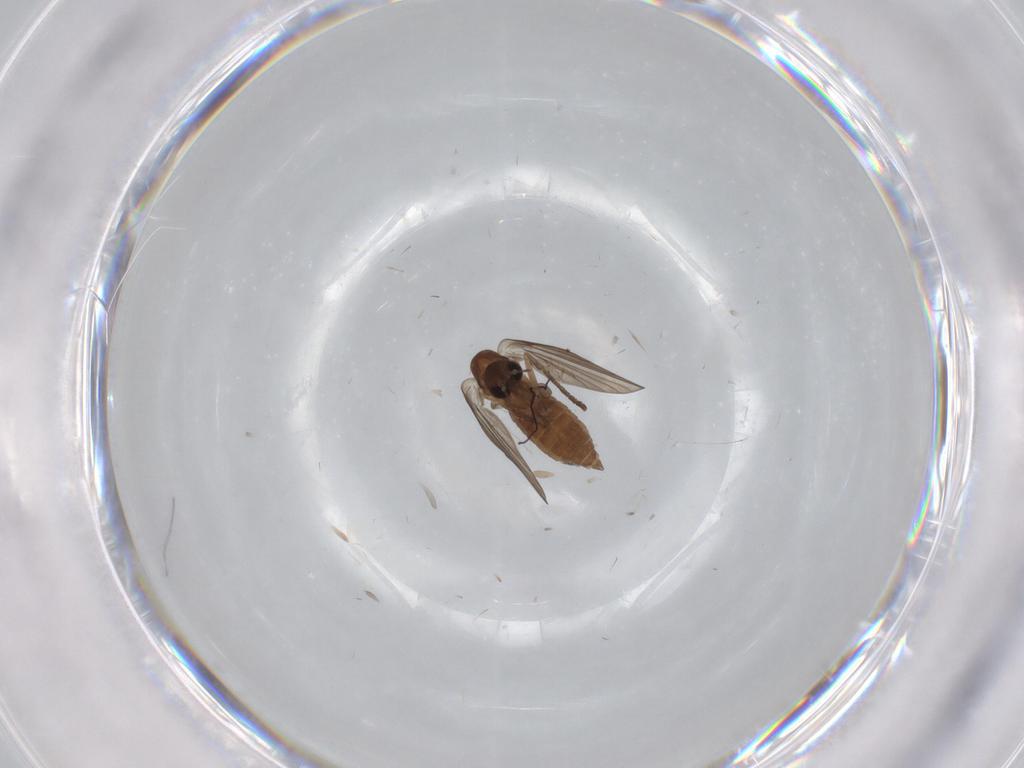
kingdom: Animalia
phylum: Arthropoda
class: Insecta
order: Diptera
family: Psychodidae
